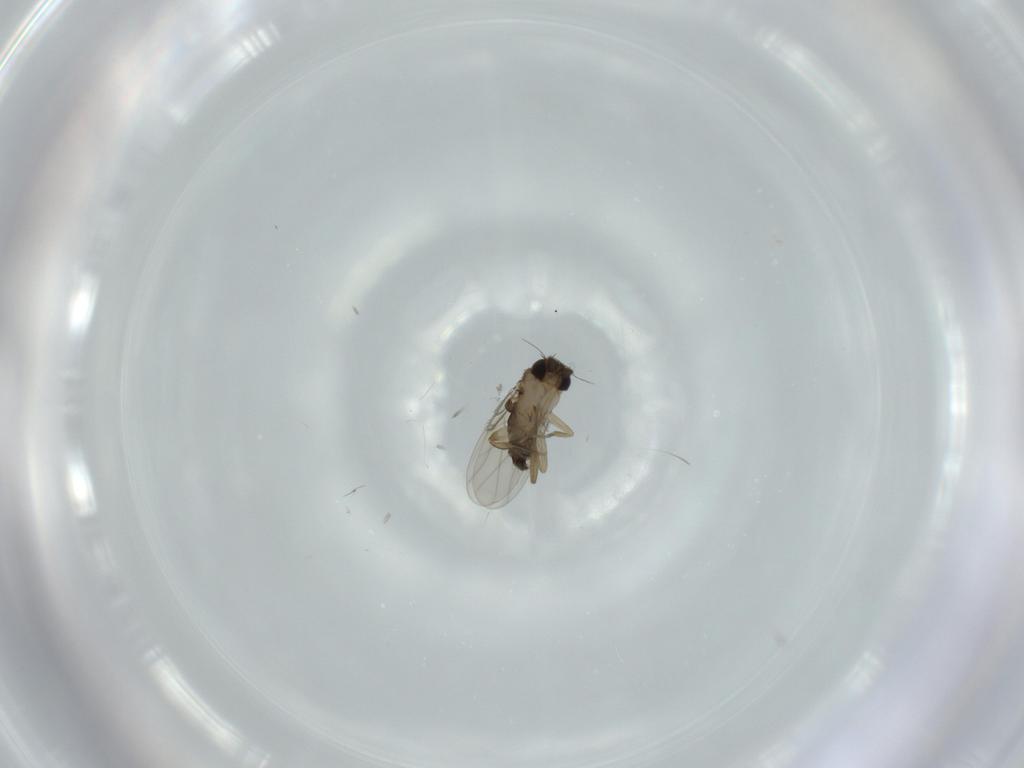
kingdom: Animalia
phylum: Arthropoda
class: Insecta
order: Diptera
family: Phoridae
